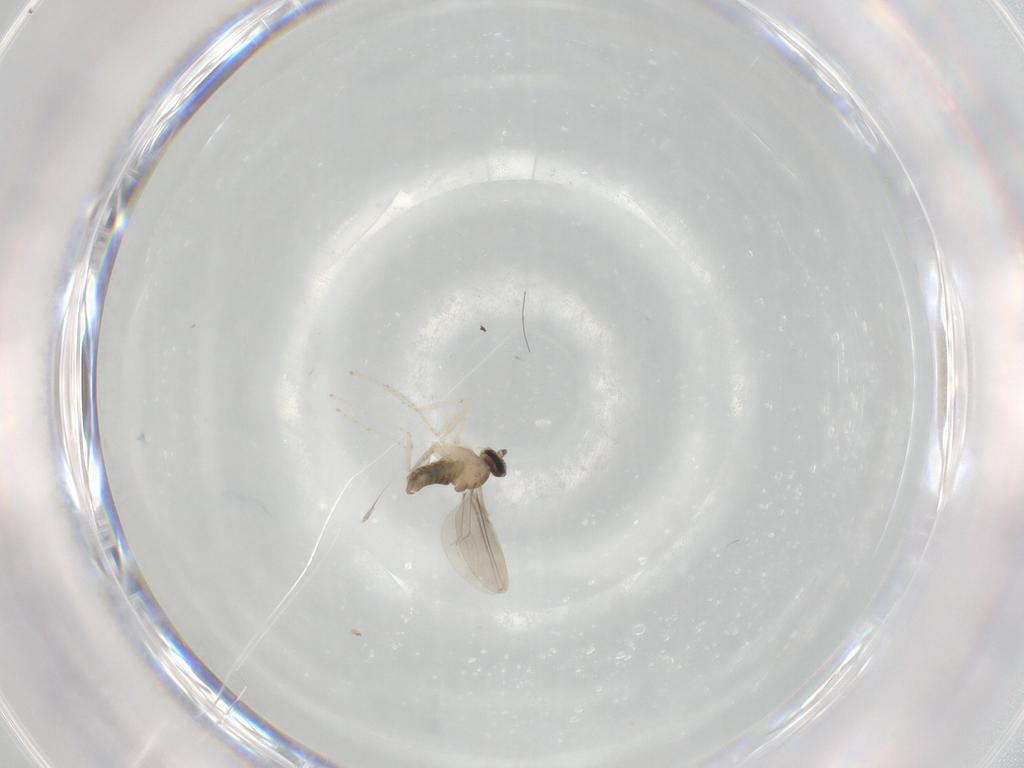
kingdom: Animalia
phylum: Arthropoda
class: Insecta
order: Diptera
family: Cecidomyiidae
